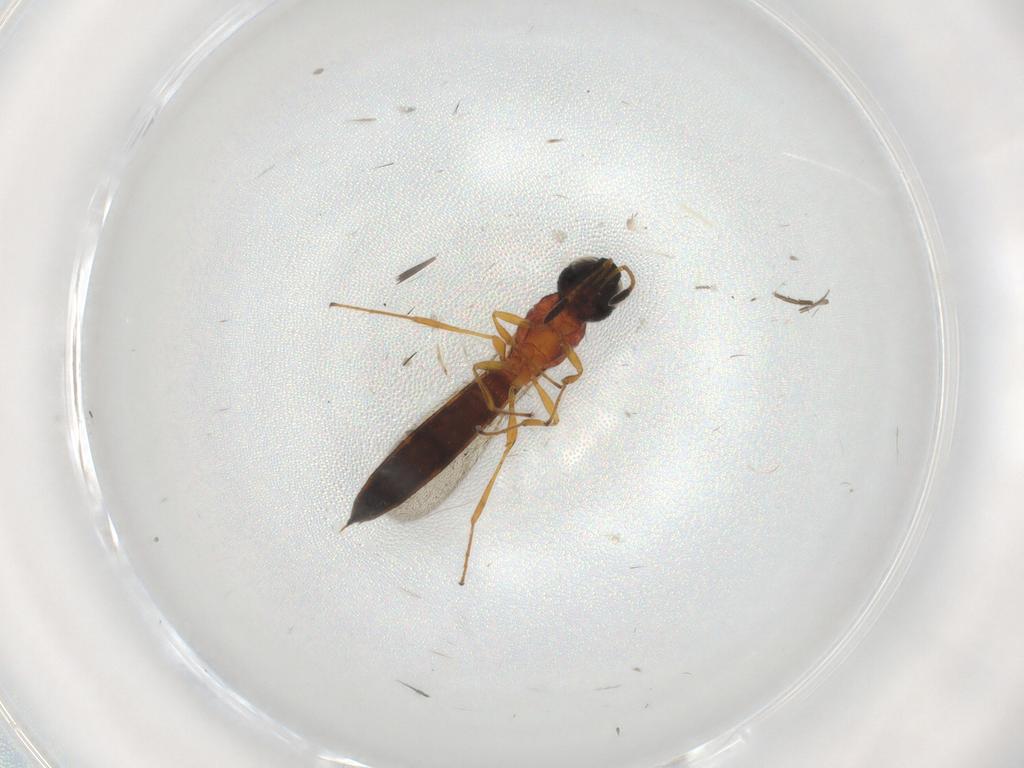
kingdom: Animalia
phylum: Arthropoda
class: Insecta
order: Hymenoptera
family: Scelionidae
